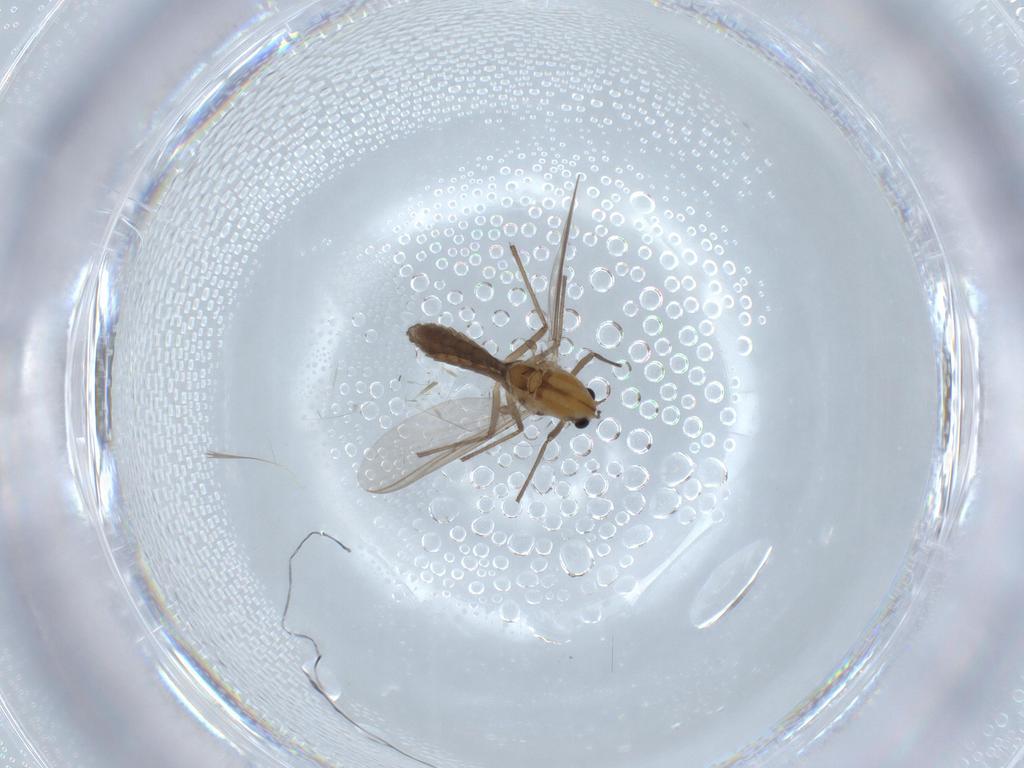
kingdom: Animalia
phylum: Arthropoda
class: Insecta
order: Diptera
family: Chironomidae
